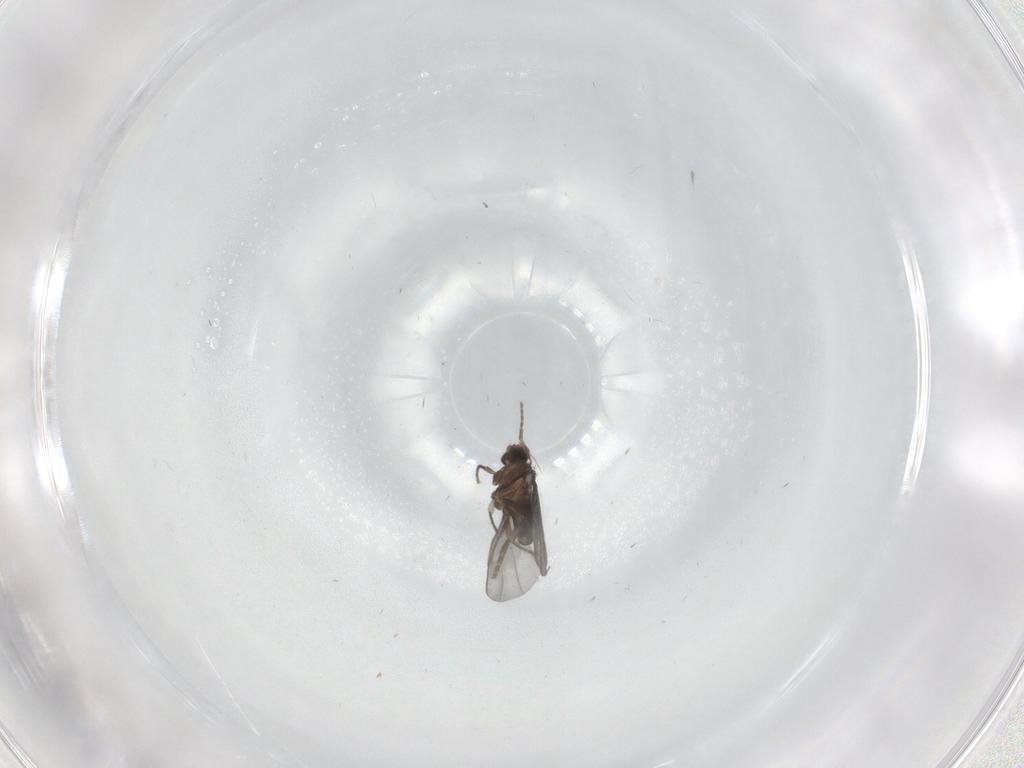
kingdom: Animalia
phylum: Arthropoda
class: Insecta
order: Diptera
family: Phoridae
